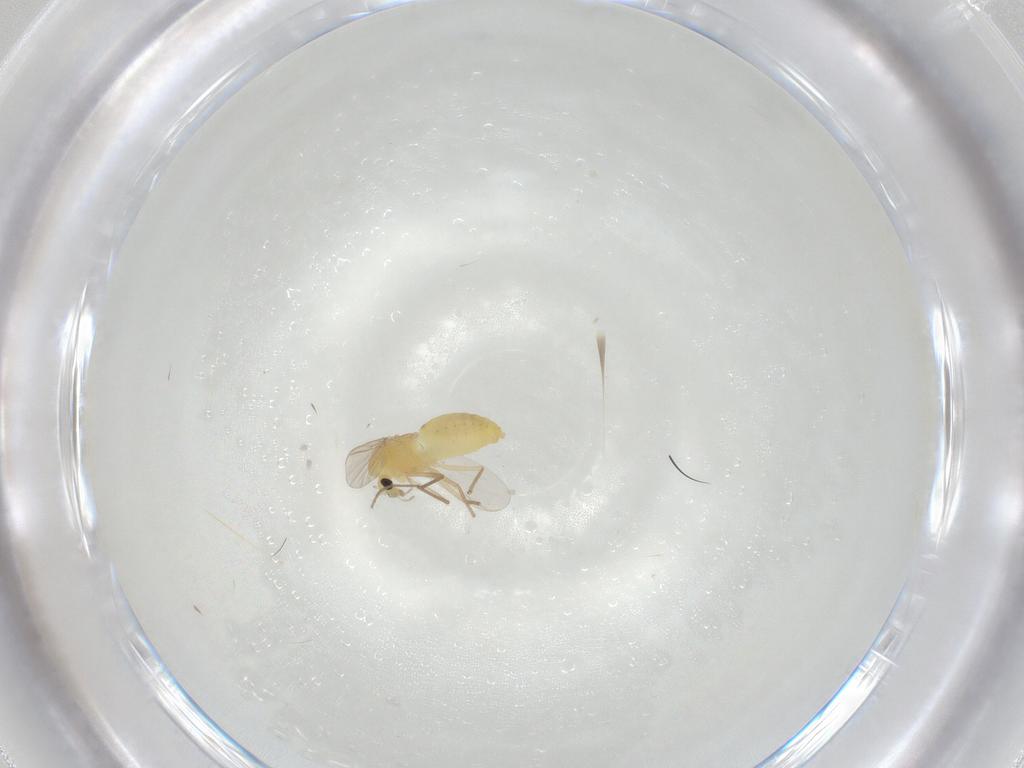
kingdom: Animalia
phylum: Arthropoda
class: Insecta
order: Diptera
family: Chironomidae
